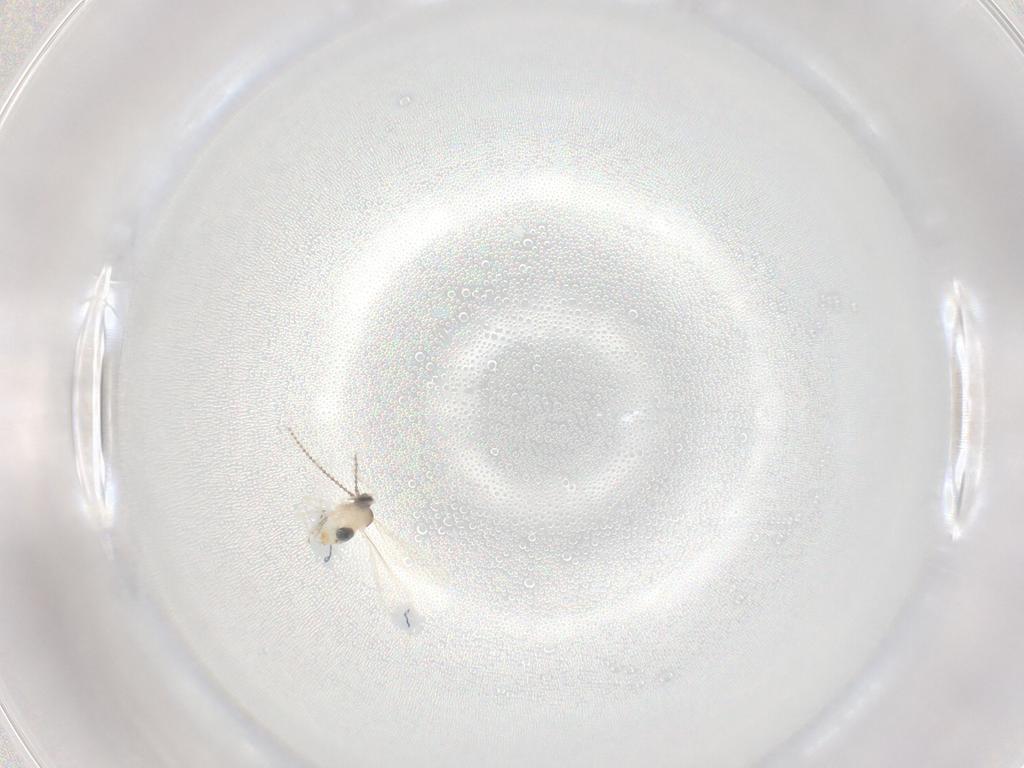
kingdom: Animalia
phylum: Arthropoda
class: Insecta
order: Diptera
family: Cecidomyiidae
